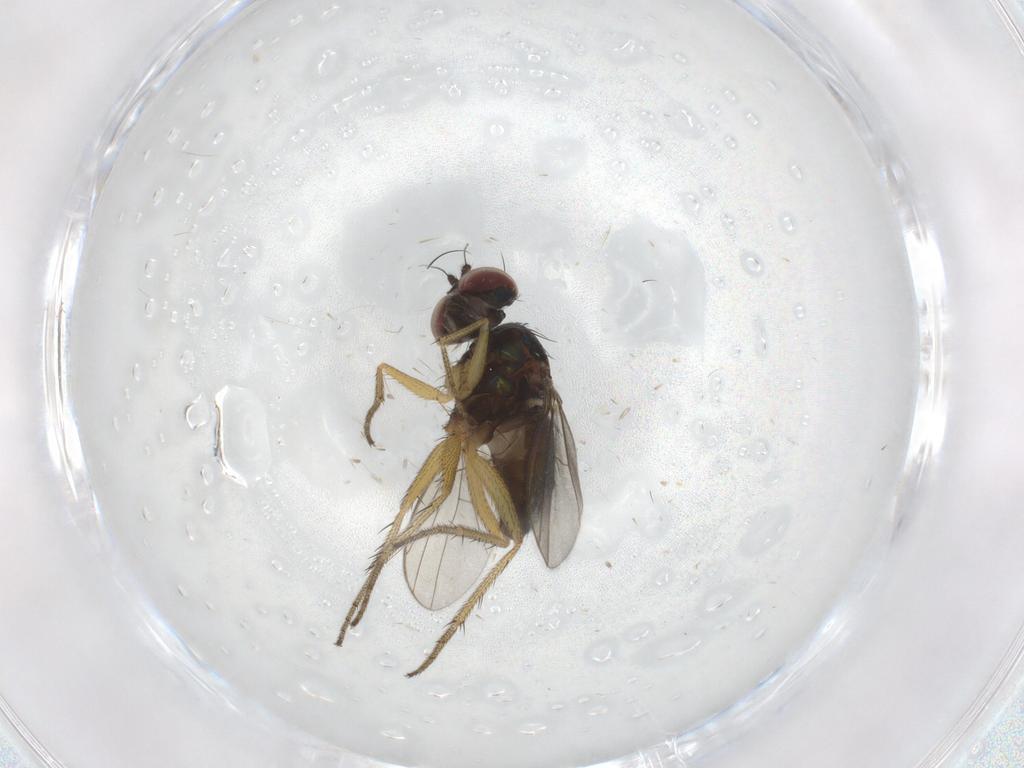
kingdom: Animalia
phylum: Arthropoda
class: Insecta
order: Diptera
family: Dolichopodidae
